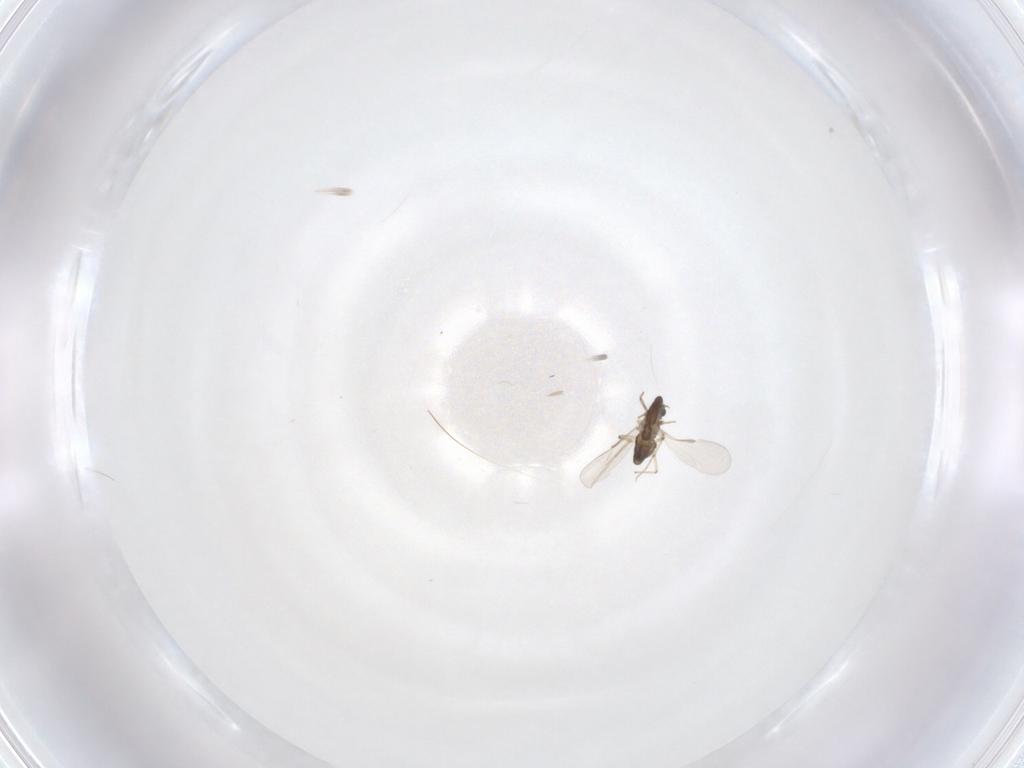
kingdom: Animalia
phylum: Arthropoda
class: Insecta
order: Diptera
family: Chironomidae
